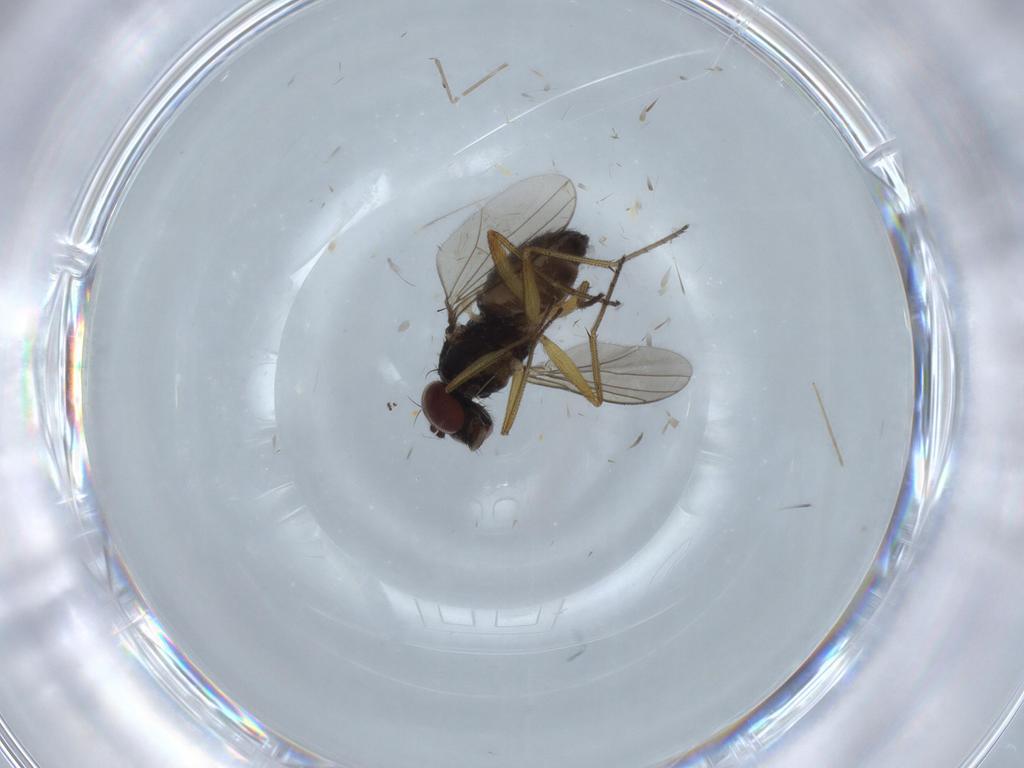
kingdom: Animalia
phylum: Arthropoda
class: Insecta
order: Diptera
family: Dolichopodidae
